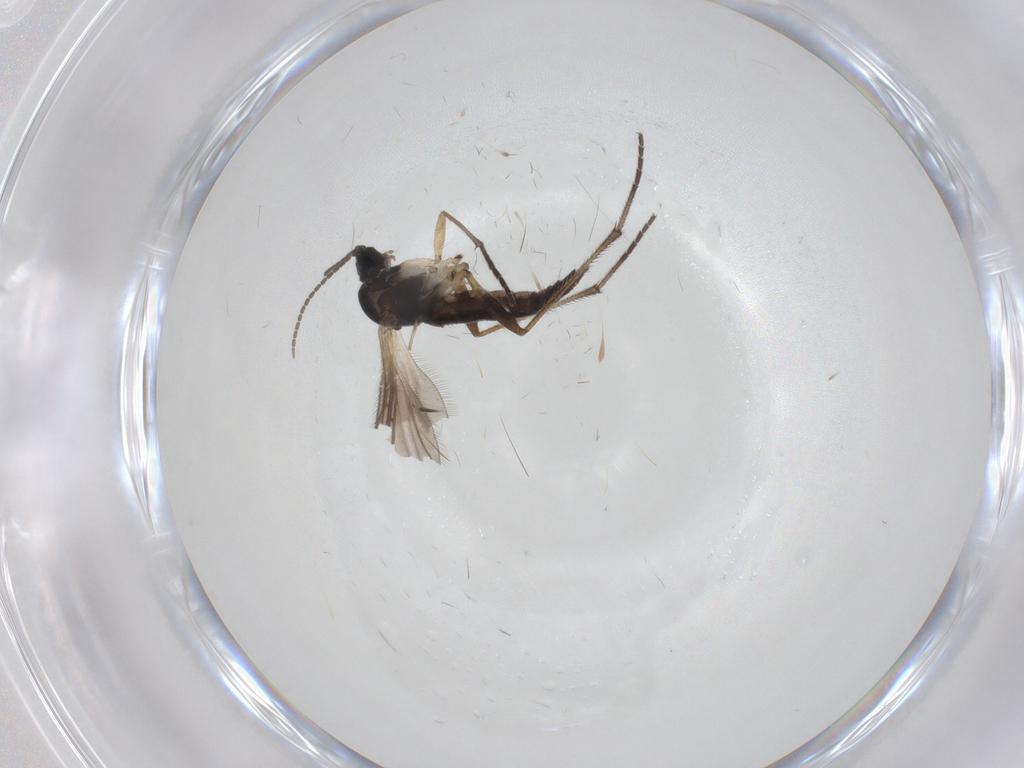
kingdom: Animalia
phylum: Arthropoda
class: Insecta
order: Diptera
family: Sciaridae
